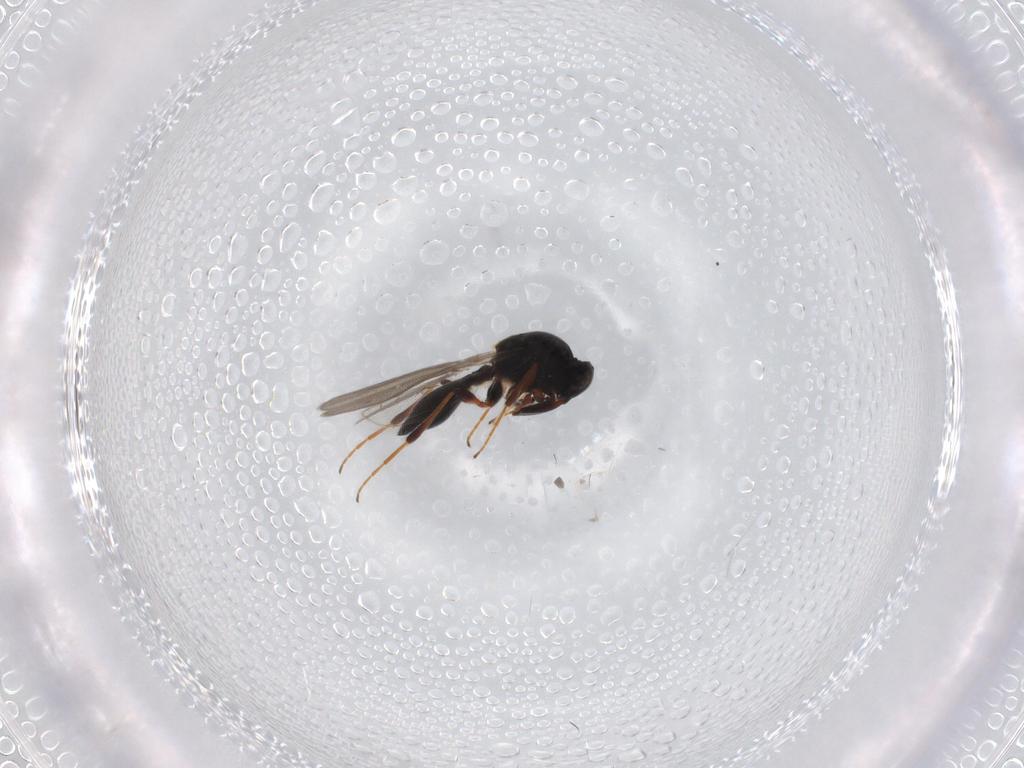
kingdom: Animalia
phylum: Arthropoda
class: Insecta
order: Hymenoptera
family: Platygastridae
